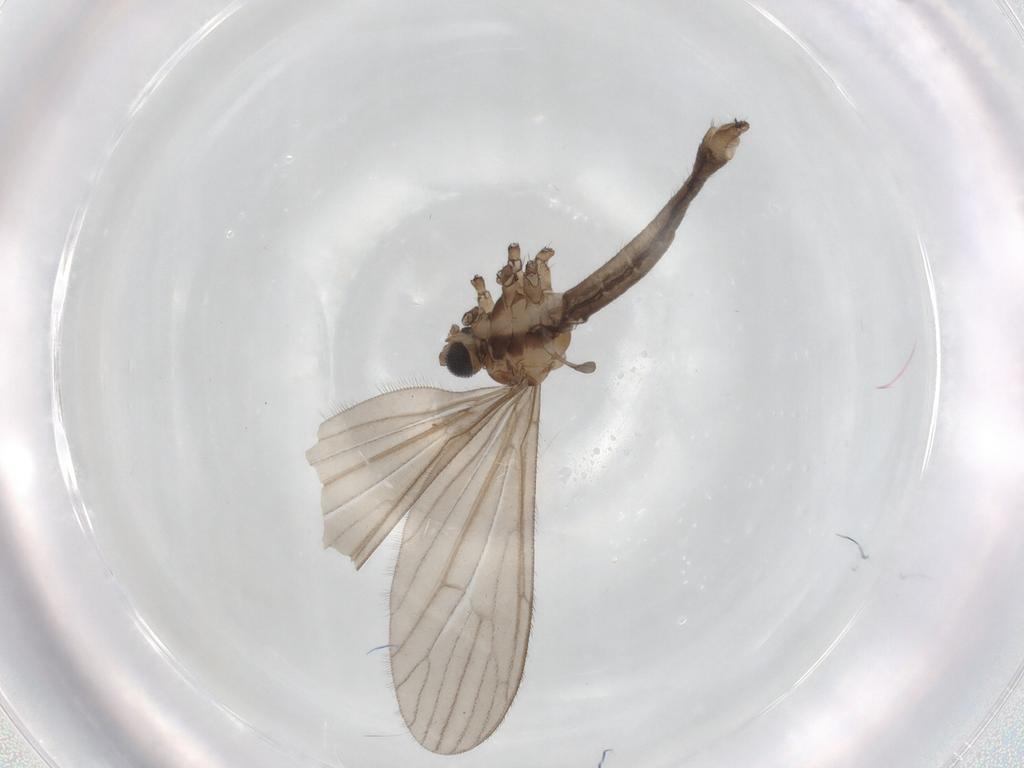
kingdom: Animalia
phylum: Arthropoda
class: Insecta
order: Diptera
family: Limoniidae
